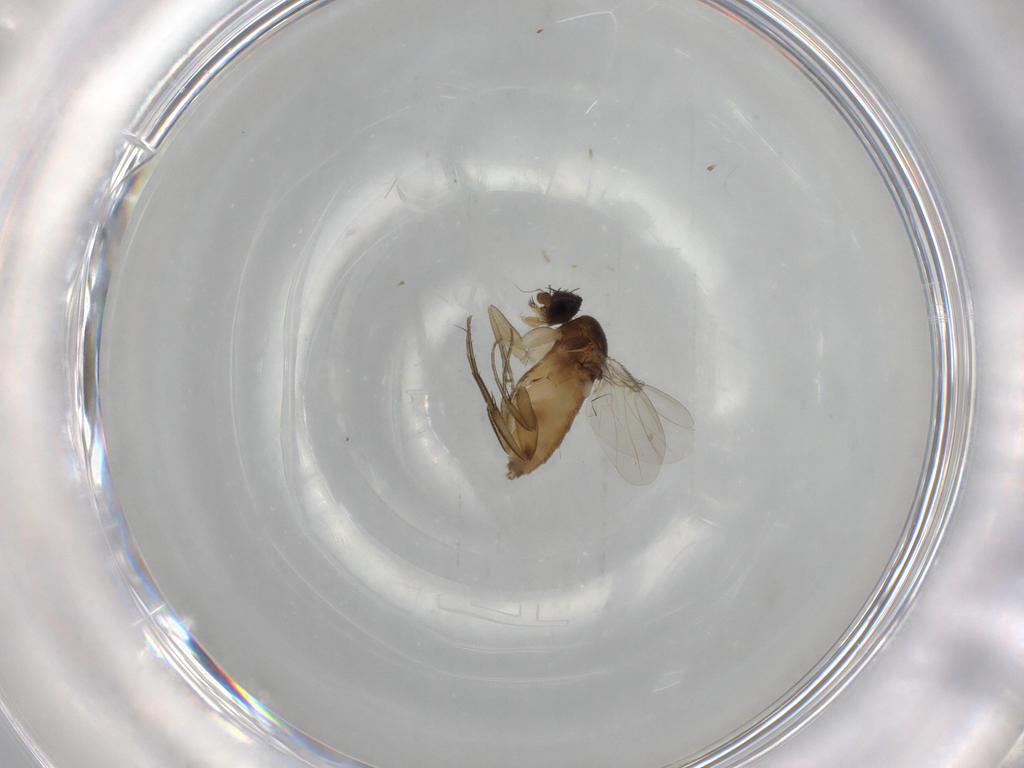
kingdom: Animalia
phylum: Arthropoda
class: Insecta
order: Diptera
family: Phoridae
